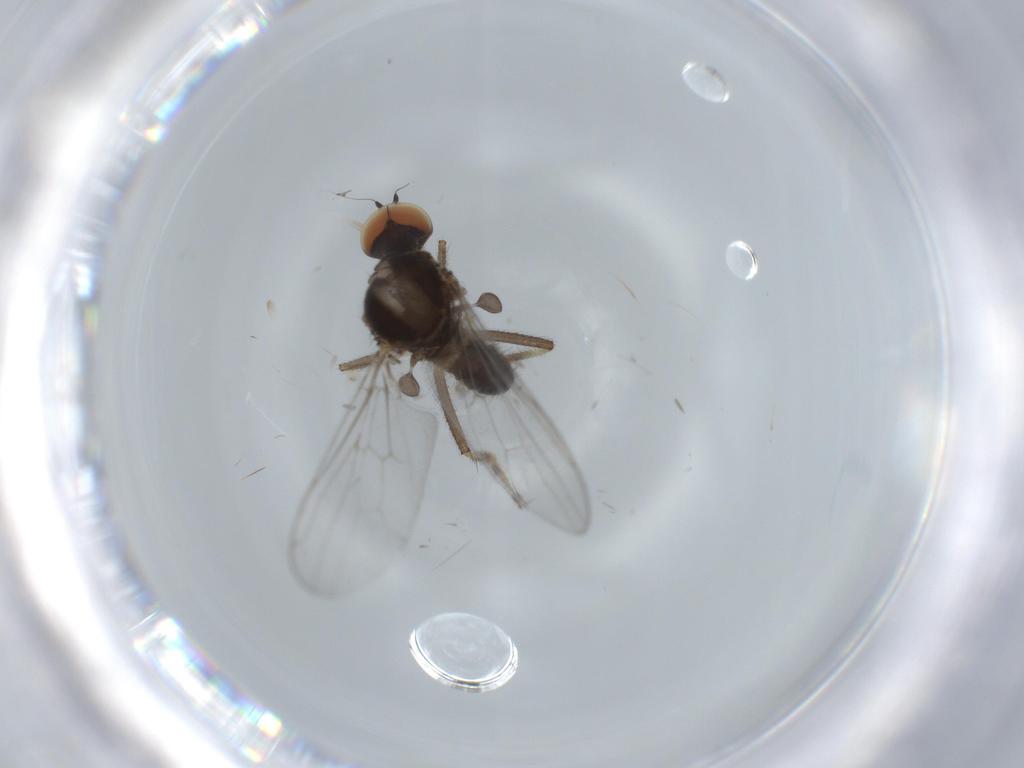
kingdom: Animalia
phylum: Arthropoda
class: Insecta
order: Diptera
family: Hybotidae
